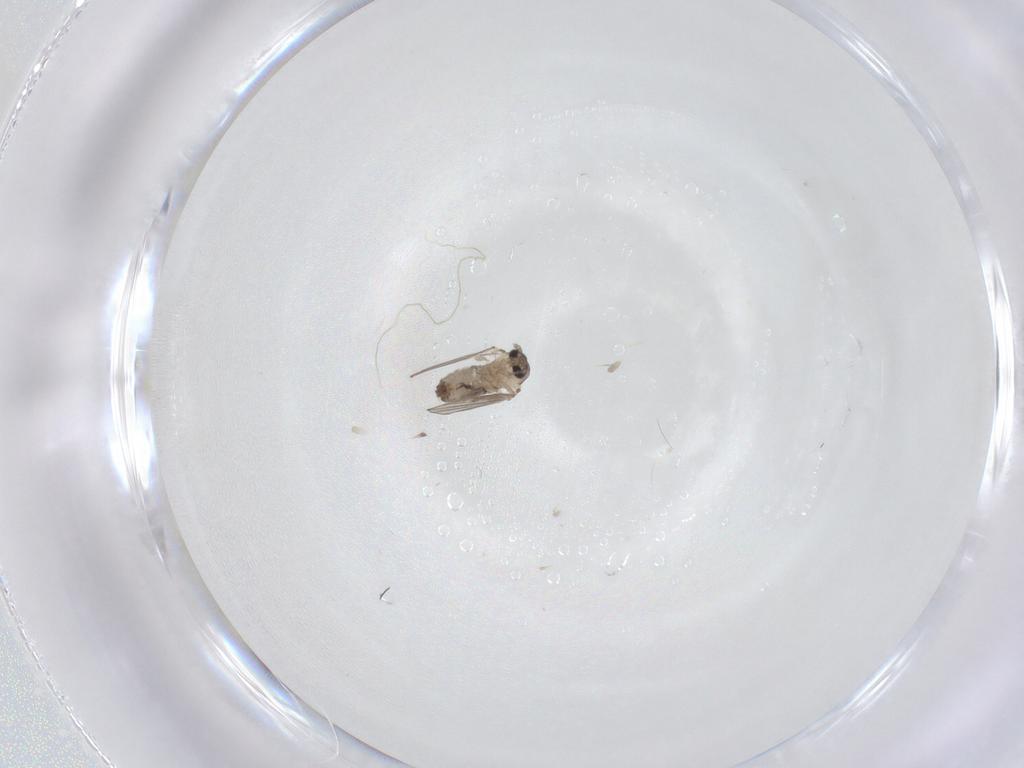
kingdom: Animalia
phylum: Arthropoda
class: Insecta
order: Diptera
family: Psychodidae
